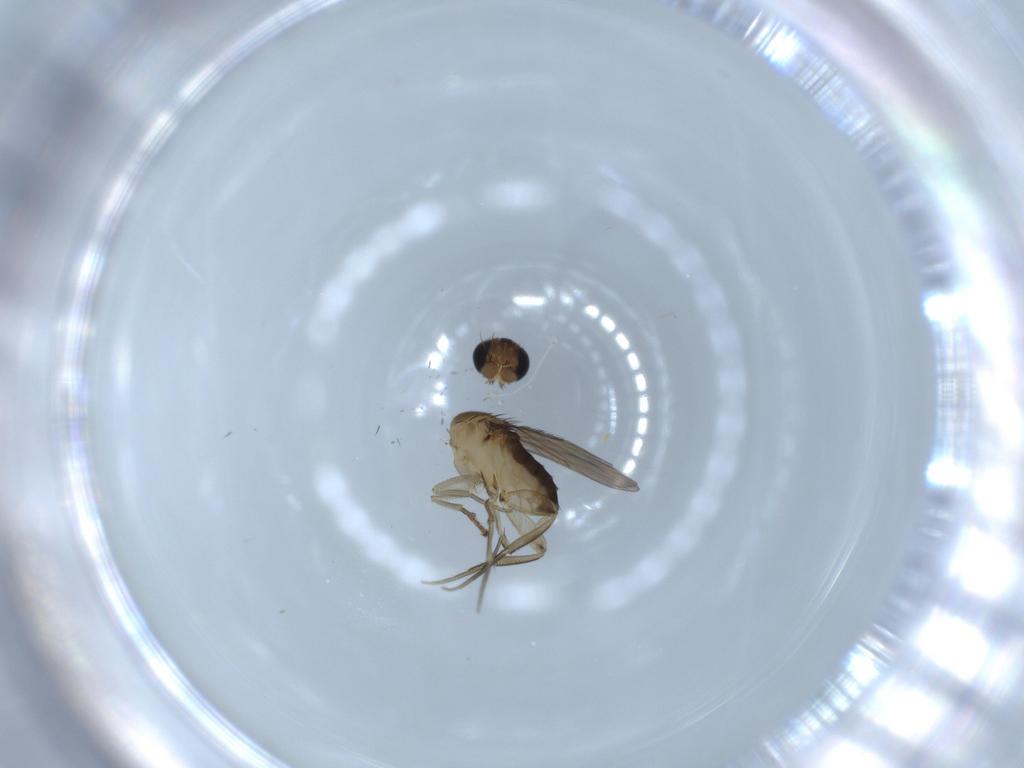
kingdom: Animalia
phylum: Arthropoda
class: Insecta
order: Diptera
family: Phoridae
